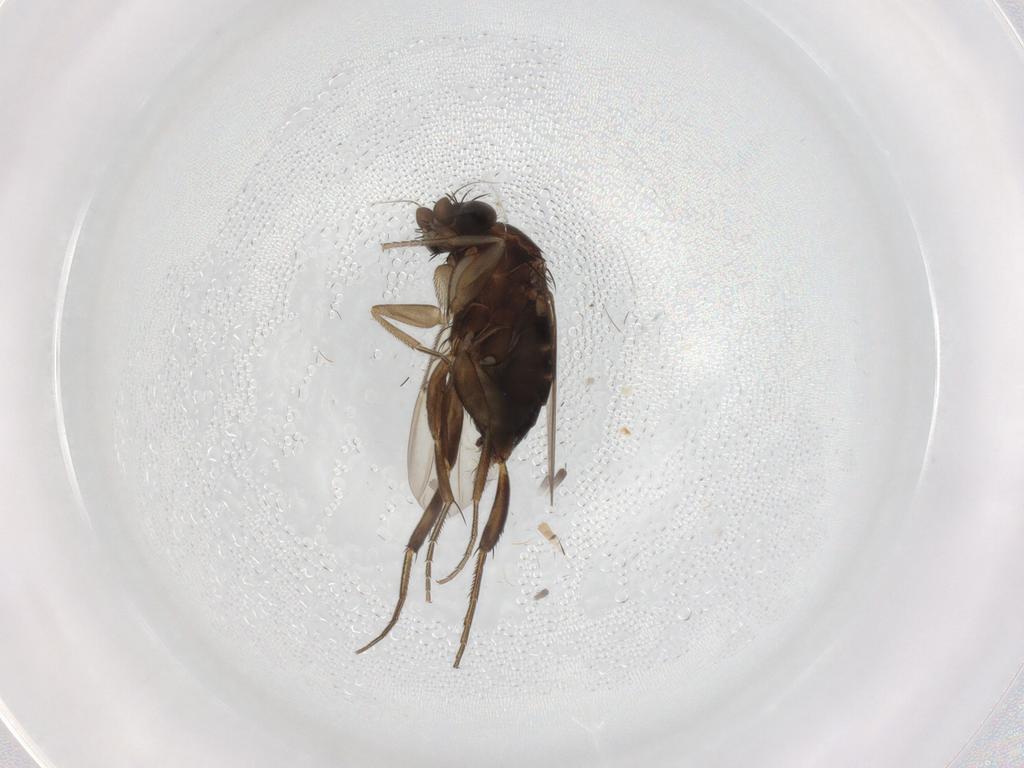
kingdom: Animalia
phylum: Arthropoda
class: Insecta
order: Diptera
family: Phoridae
